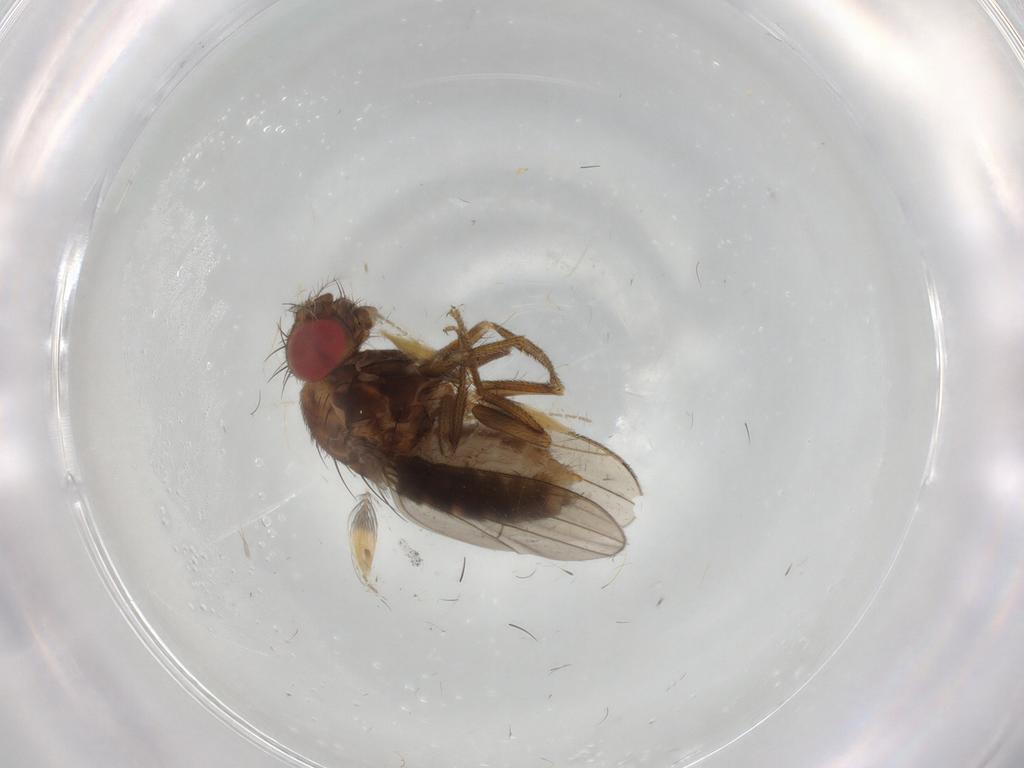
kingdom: Animalia
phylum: Arthropoda
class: Insecta
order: Diptera
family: Drosophilidae
